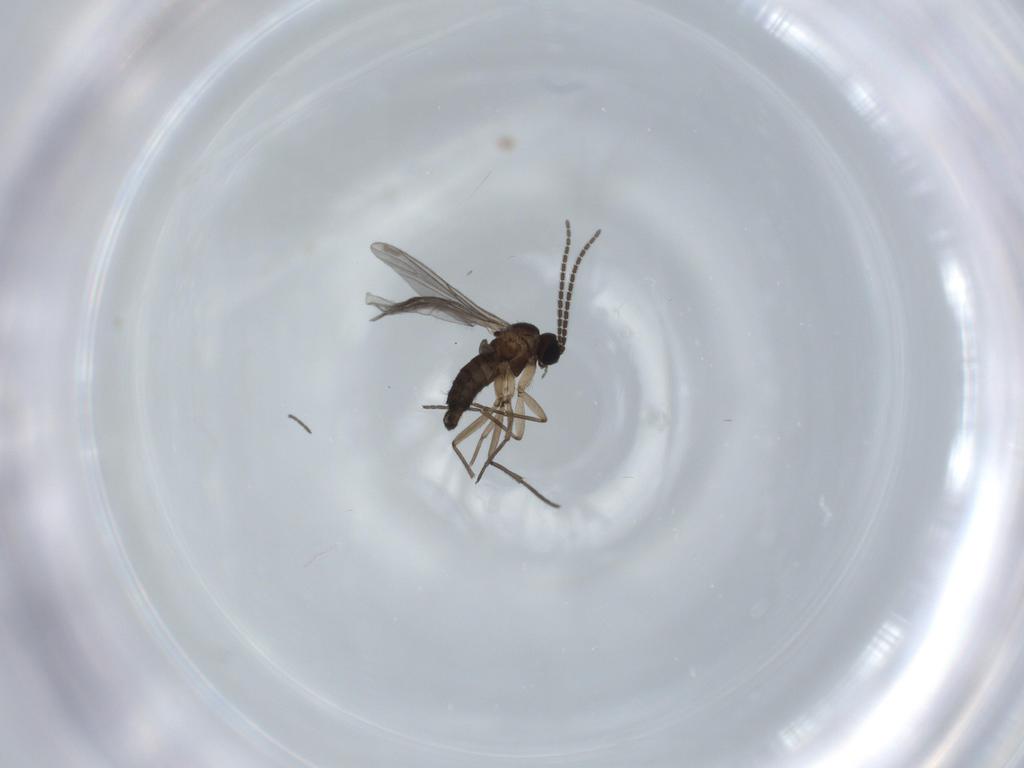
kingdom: Animalia
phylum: Arthropoda
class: Insecta
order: Diptera
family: Sciaridae
